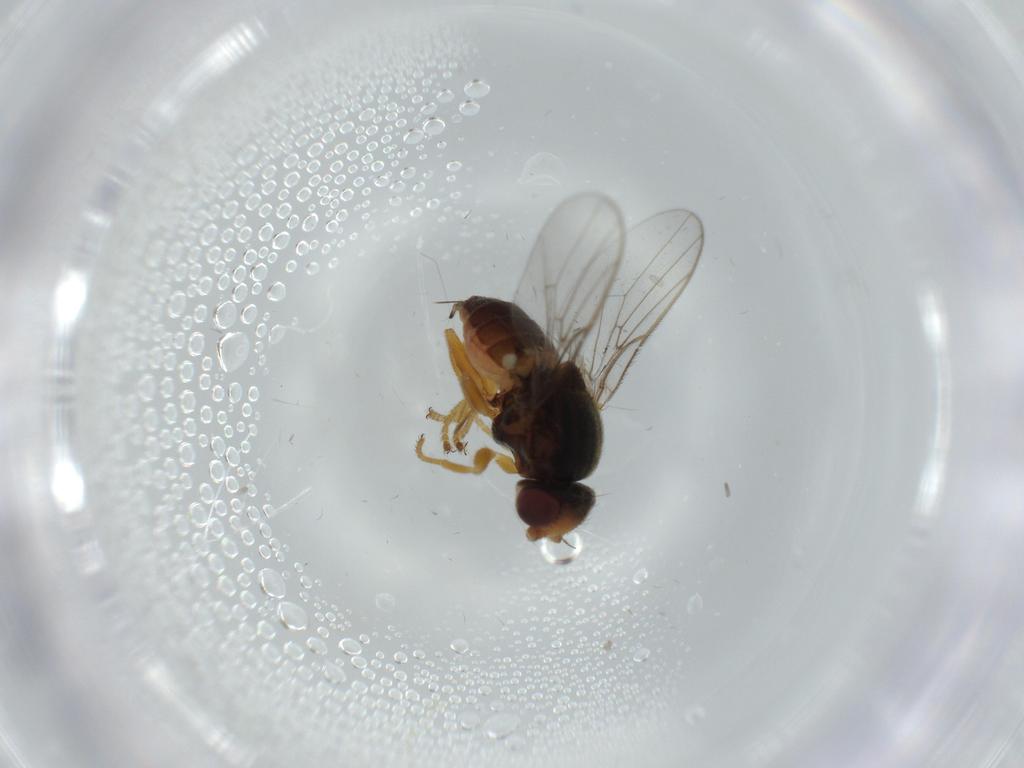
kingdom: Animalia
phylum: Arthropoda
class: Insecta
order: Diptera
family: Chloropidae
